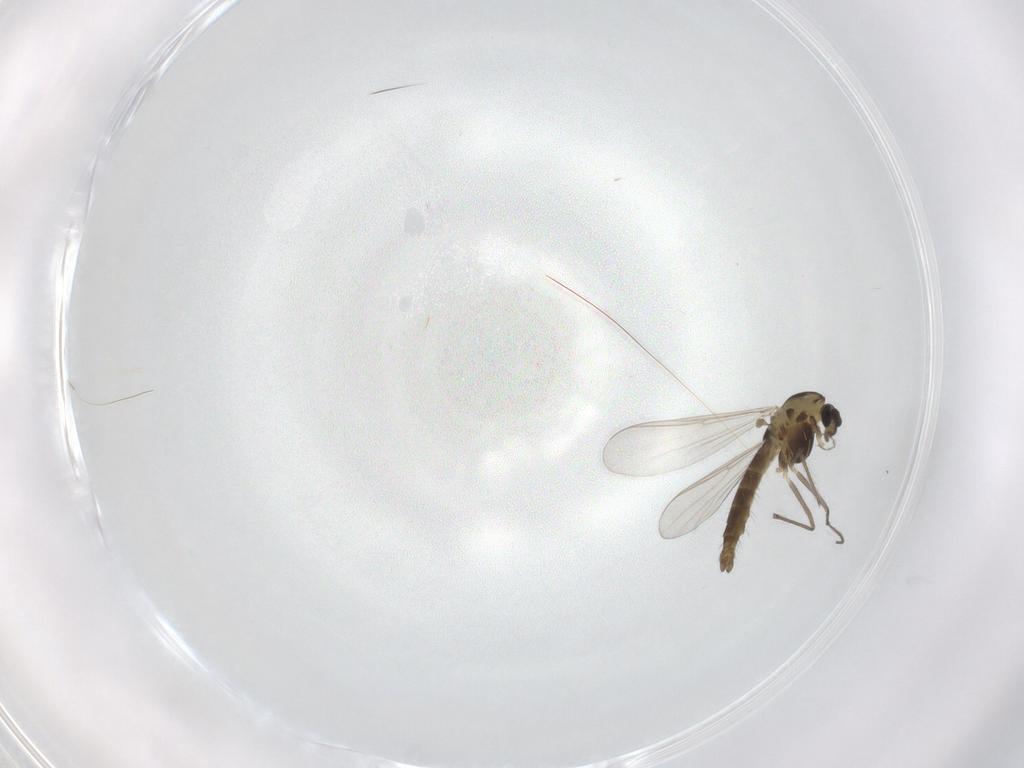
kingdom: Animalia
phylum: Arthropoda
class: Insecta
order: Diptera
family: Chironomidae
